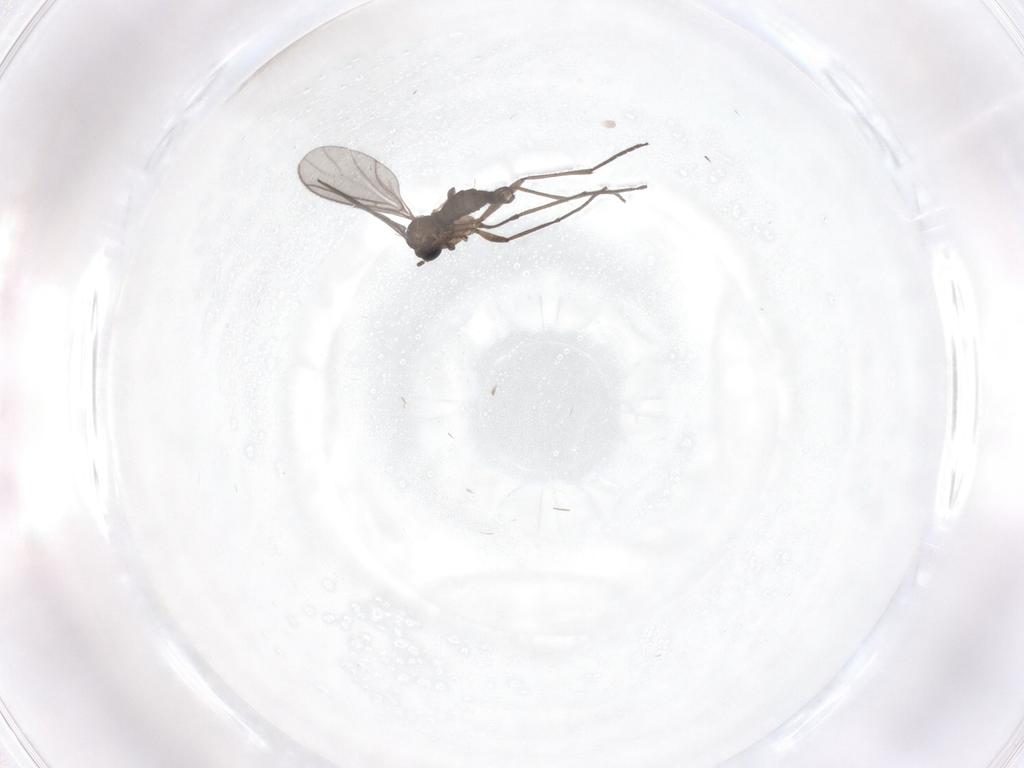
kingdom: Animalia
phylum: Arthropoda
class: Insecta
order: Diptera
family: Sciaridae
